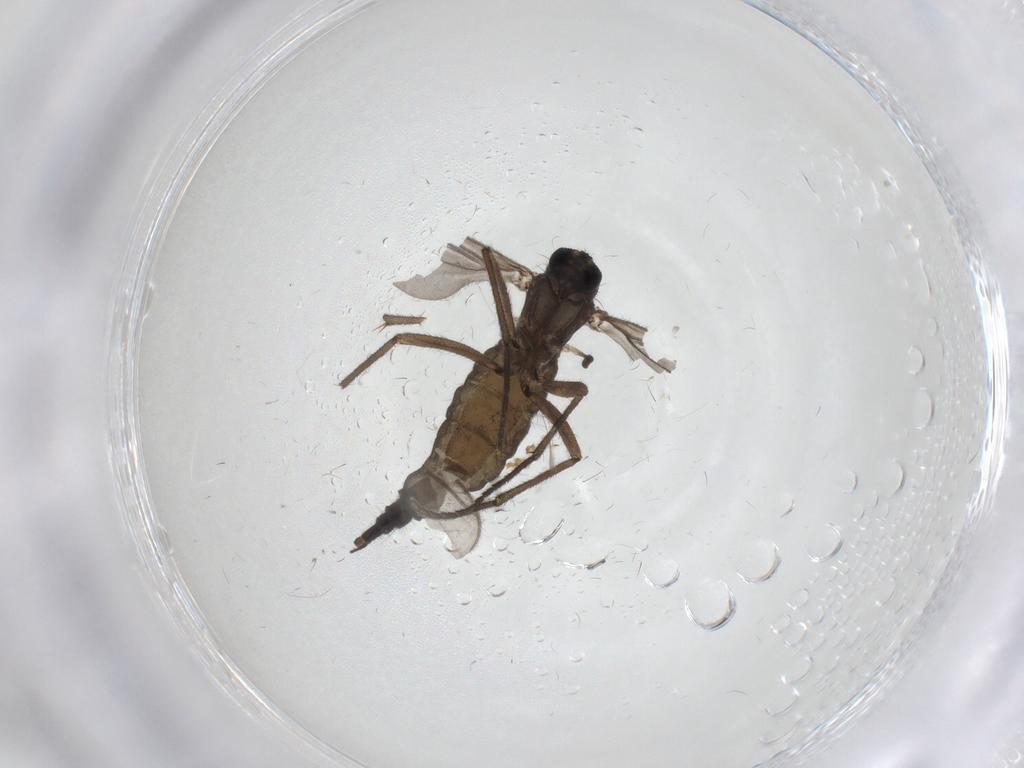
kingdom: Animalia
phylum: Arthropoda
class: Insecta
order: Diptera
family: Sciaridae
